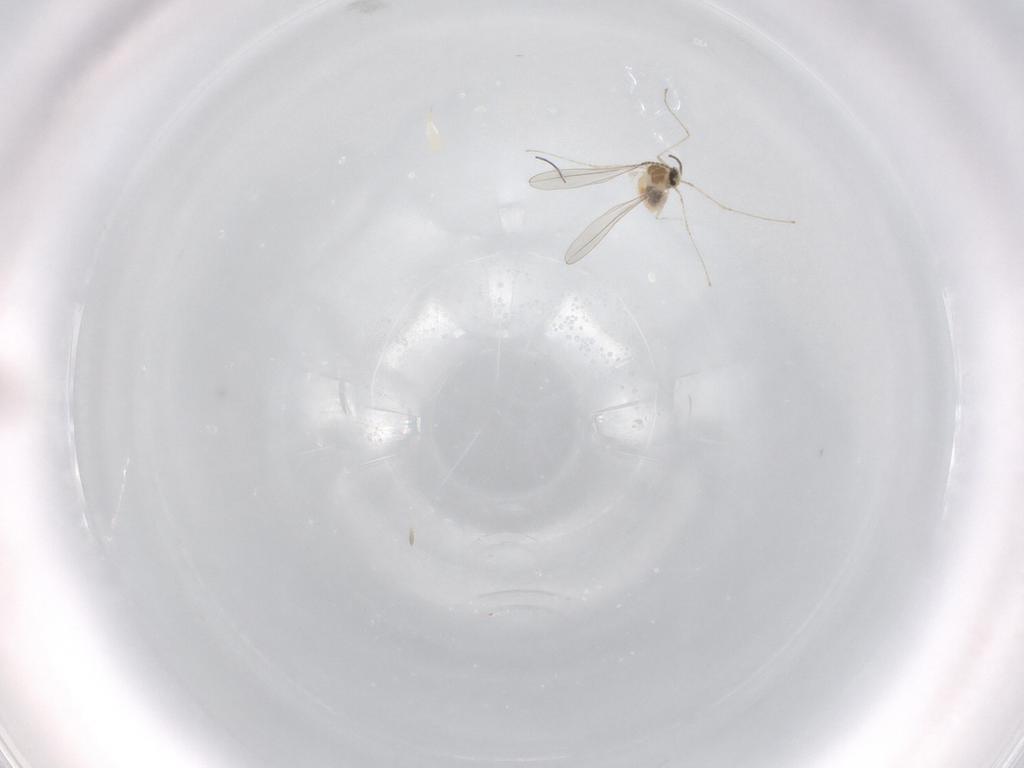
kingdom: Animalia
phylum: Arthropoda
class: Insecta
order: Diptera
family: Cecidomyiidae
